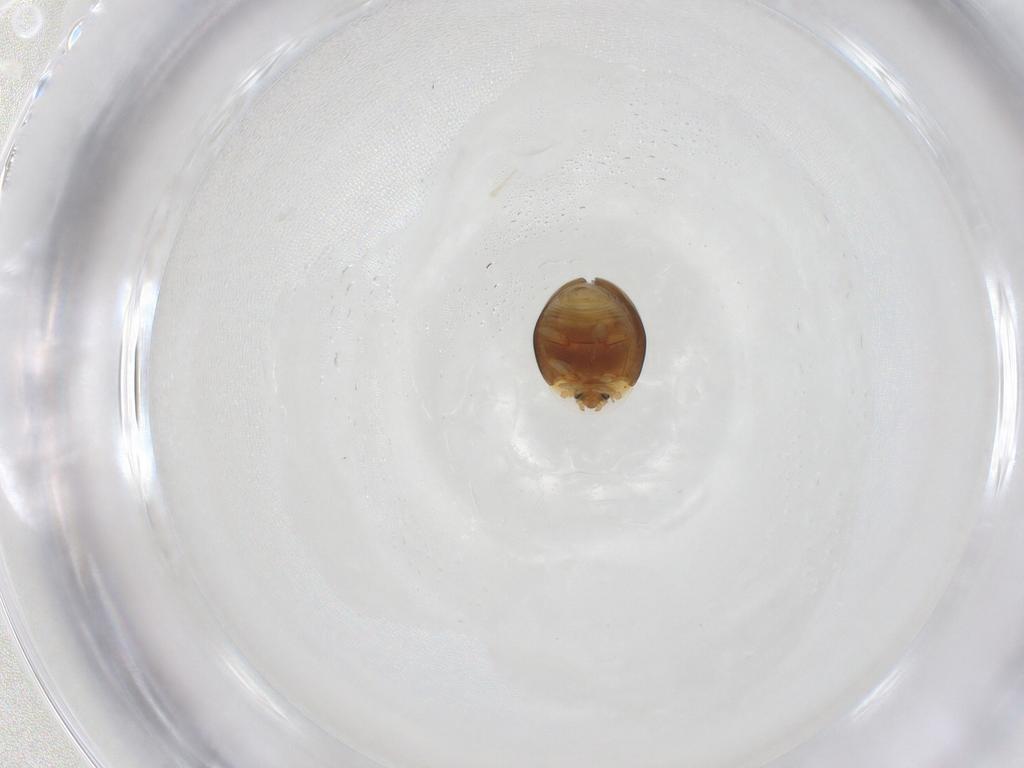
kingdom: Animalia
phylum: Arthropoda
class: Insecta
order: Coleoptera
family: Corylophidae
